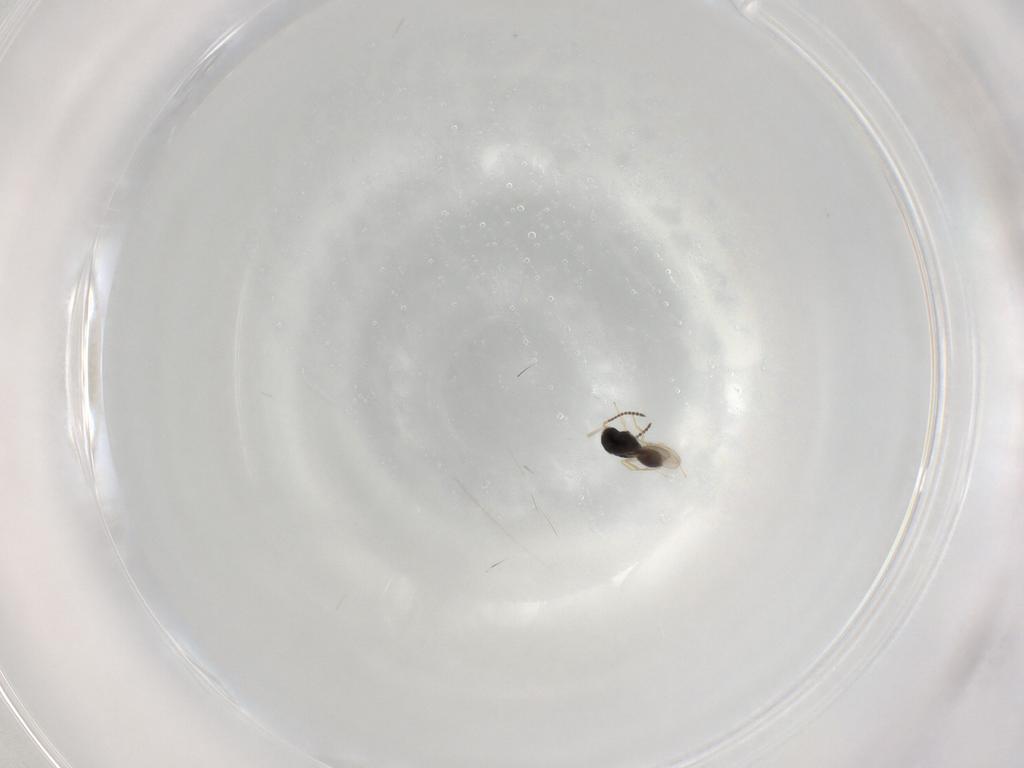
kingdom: Animalia
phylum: Arthropoda
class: Insecta
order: Hymenoptera
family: Scelionidae
